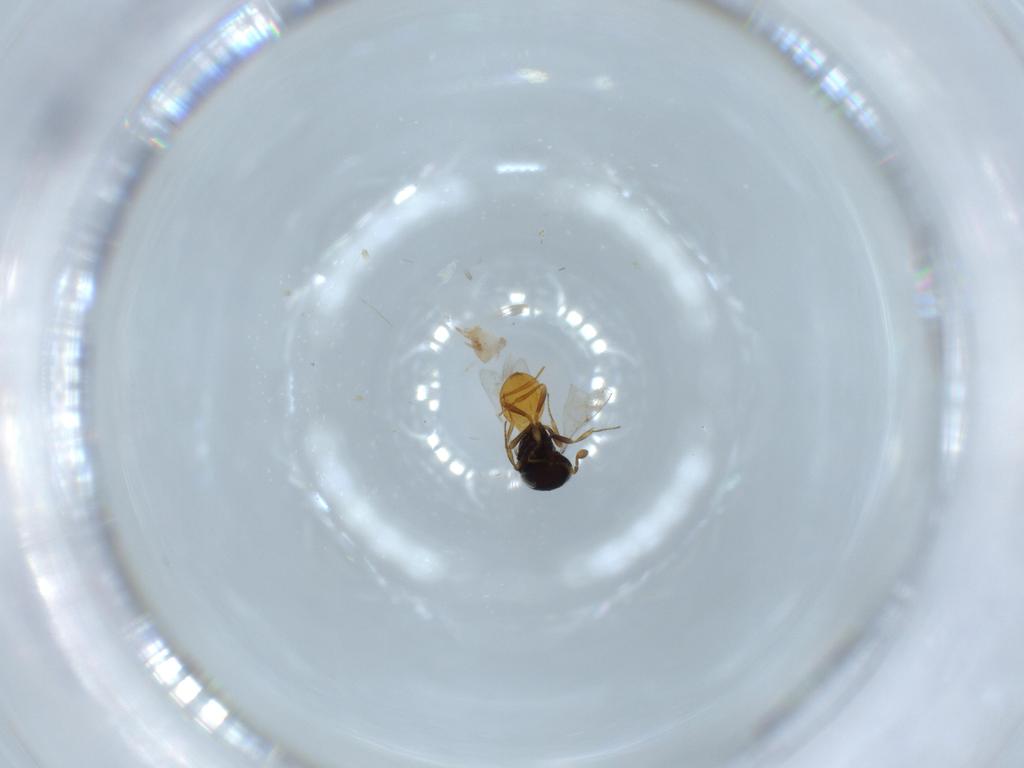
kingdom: Animalia
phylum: Arthropoda
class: Insecta
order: Hymenoptera
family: Scelionidae
